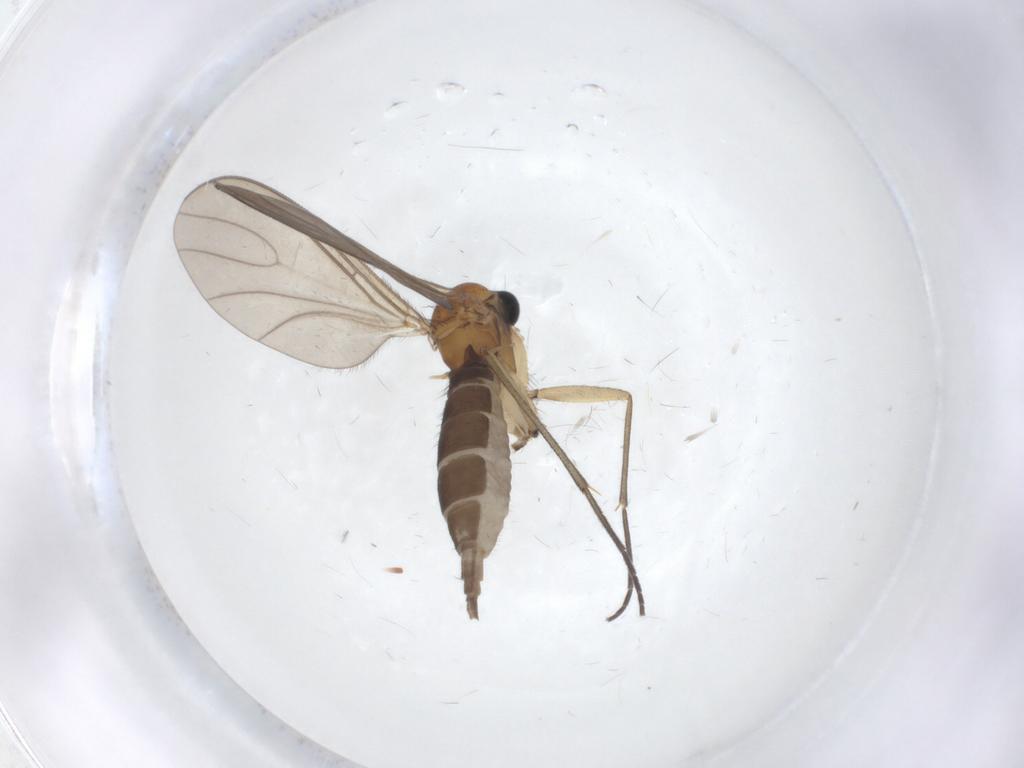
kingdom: Animalia
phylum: Arthropoda
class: Insecta
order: Diptera
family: Sciaridae
